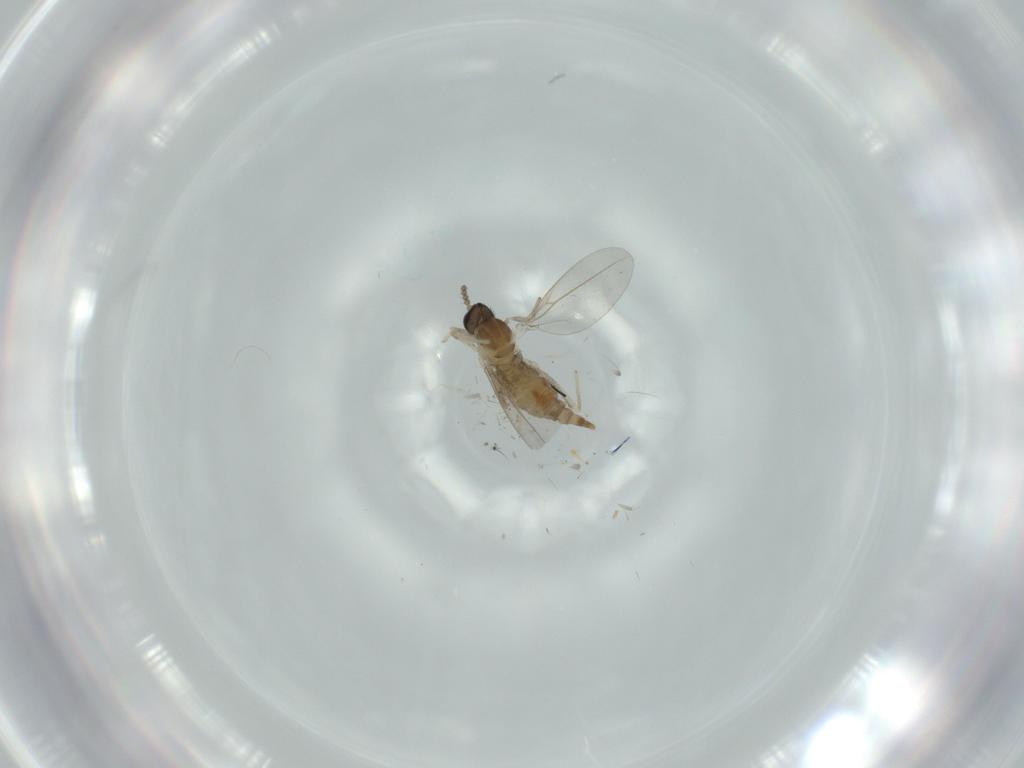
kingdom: Animalia
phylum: Arthropoda
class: Insecta
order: Diptera
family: Cecidomyiidae
